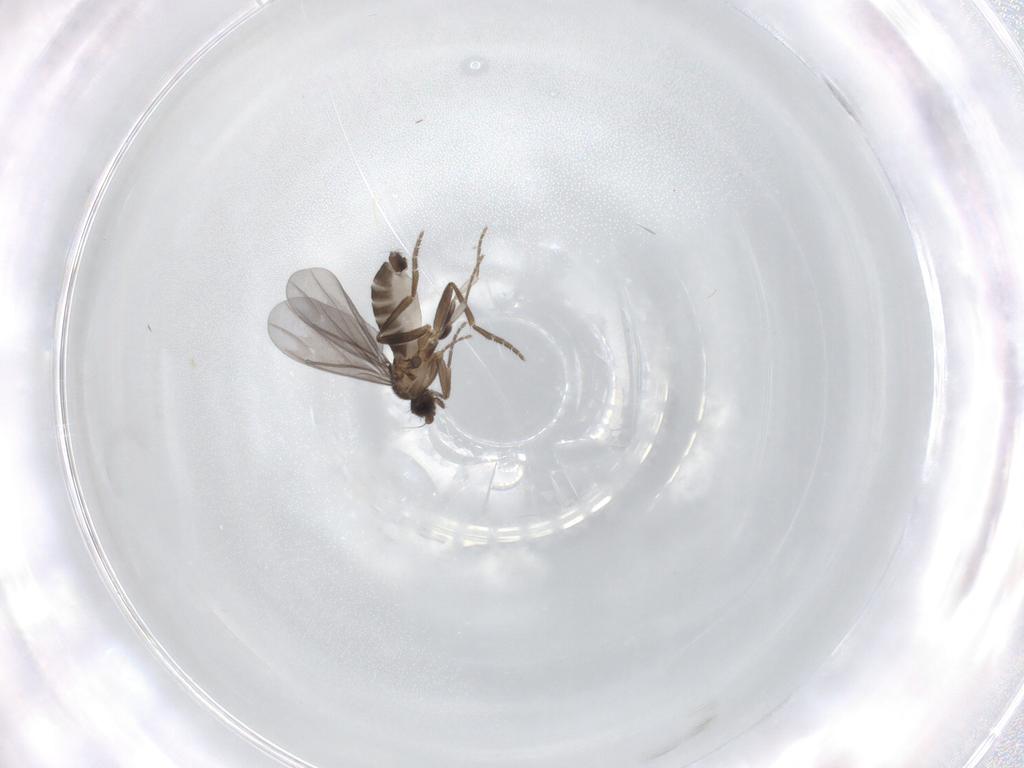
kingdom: Animalia
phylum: Arthropoda
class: Insecta
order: Diptera
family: Phoridae
